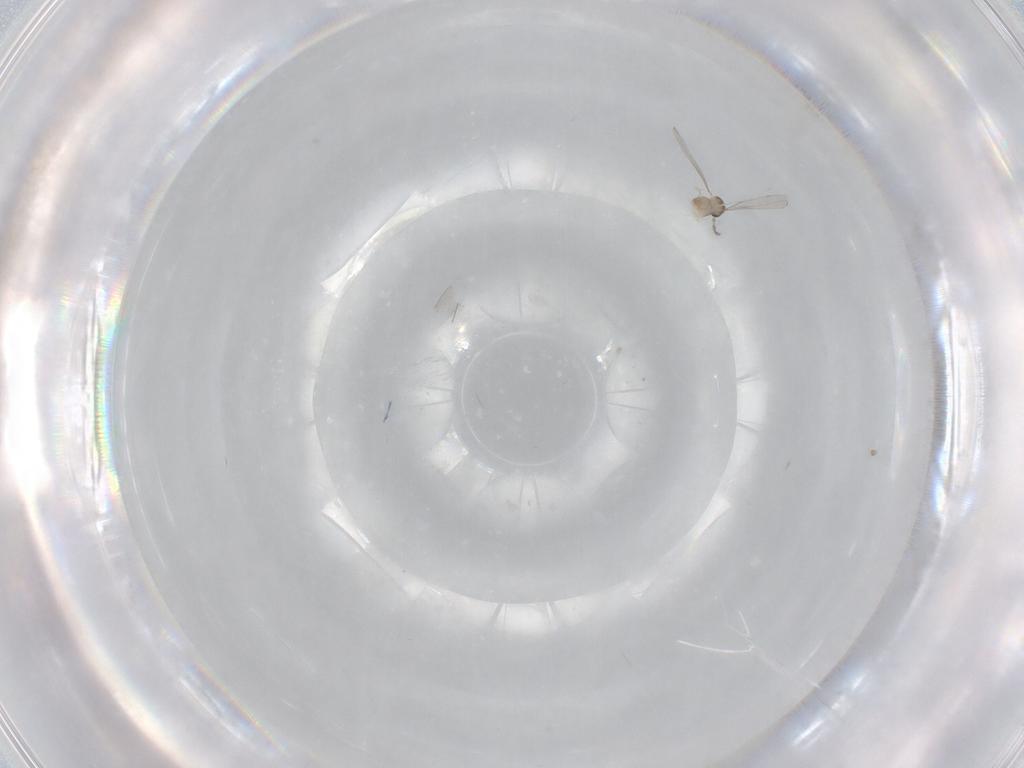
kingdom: Animalia
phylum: Arthropoda
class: Insecta
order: Diptera
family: Cecidomyiidae
